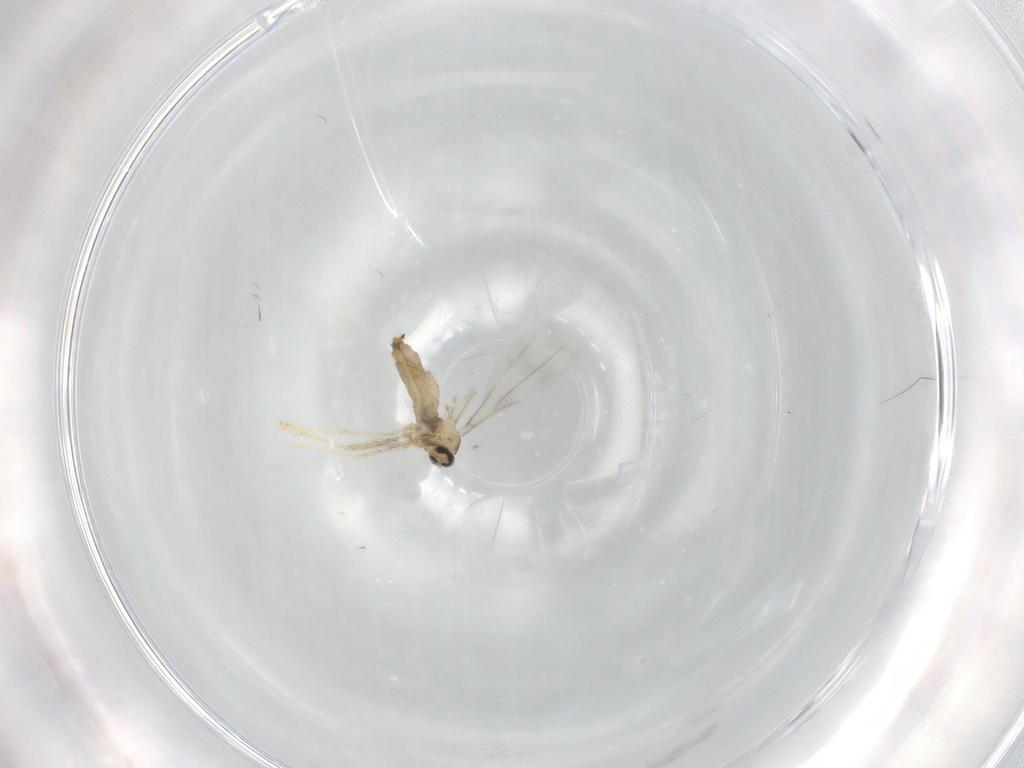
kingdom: Animalia
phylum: Arthropoda
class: Insecta
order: Diptera
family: Cecidomyiidae
